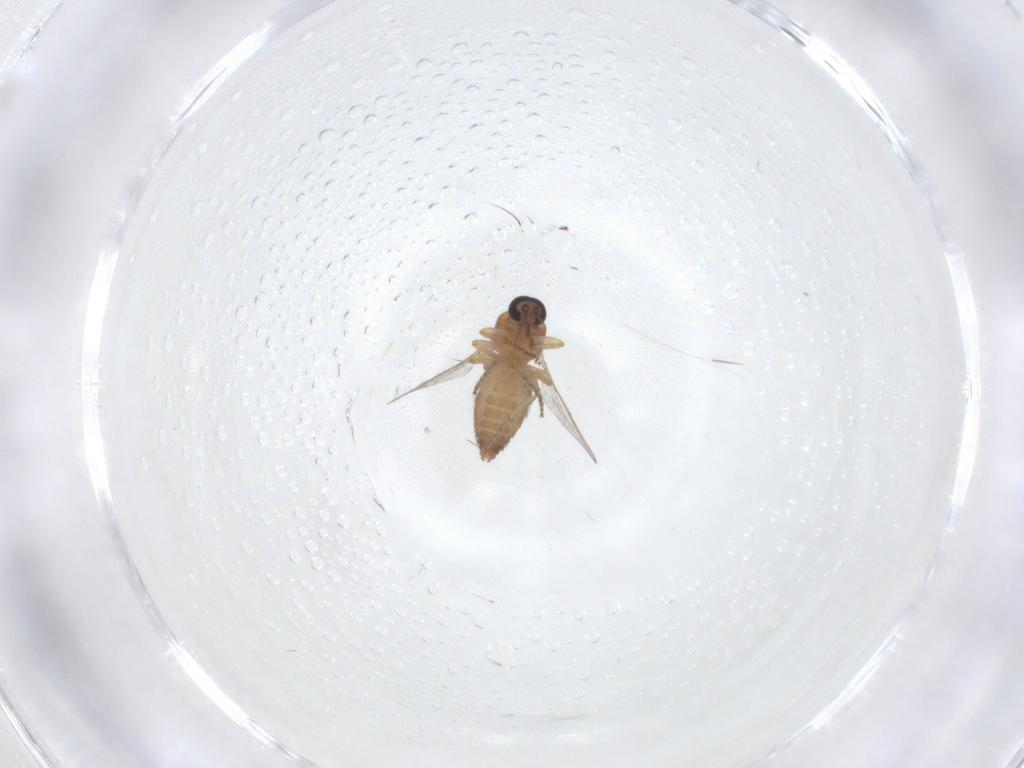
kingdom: Animalia
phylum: Arthropoda
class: Insecta
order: Diptera
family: Ceratopogonidae
